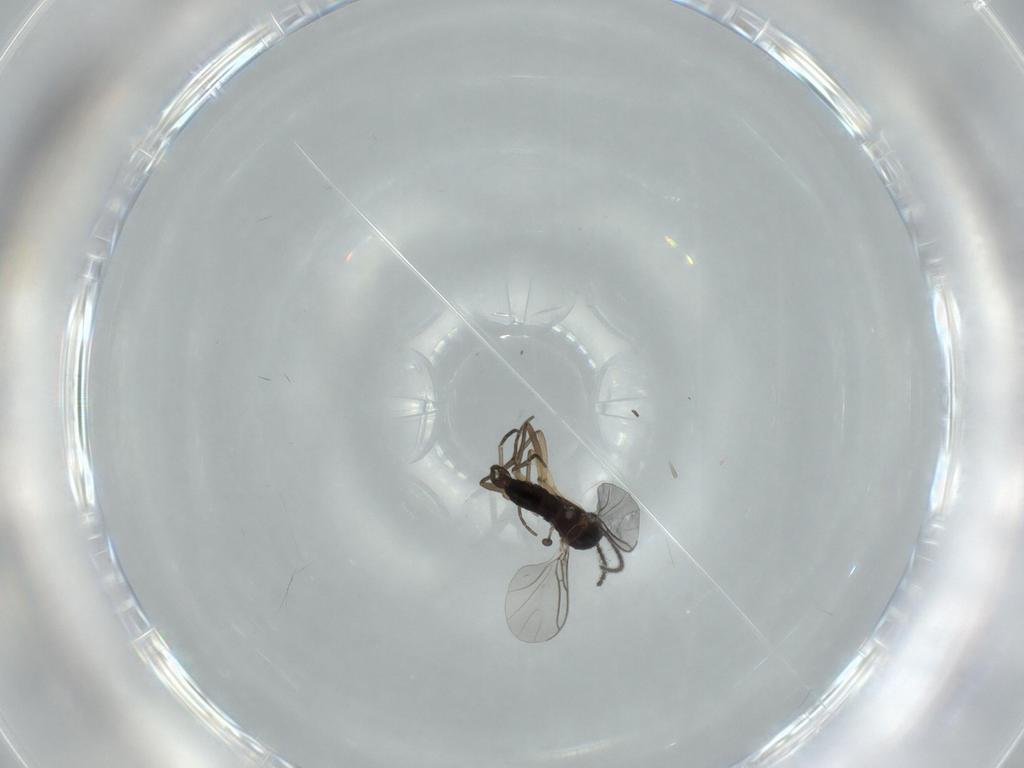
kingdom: Animalia
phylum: Arthropoda
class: Insecta
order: Diptera
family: Sciaridae
